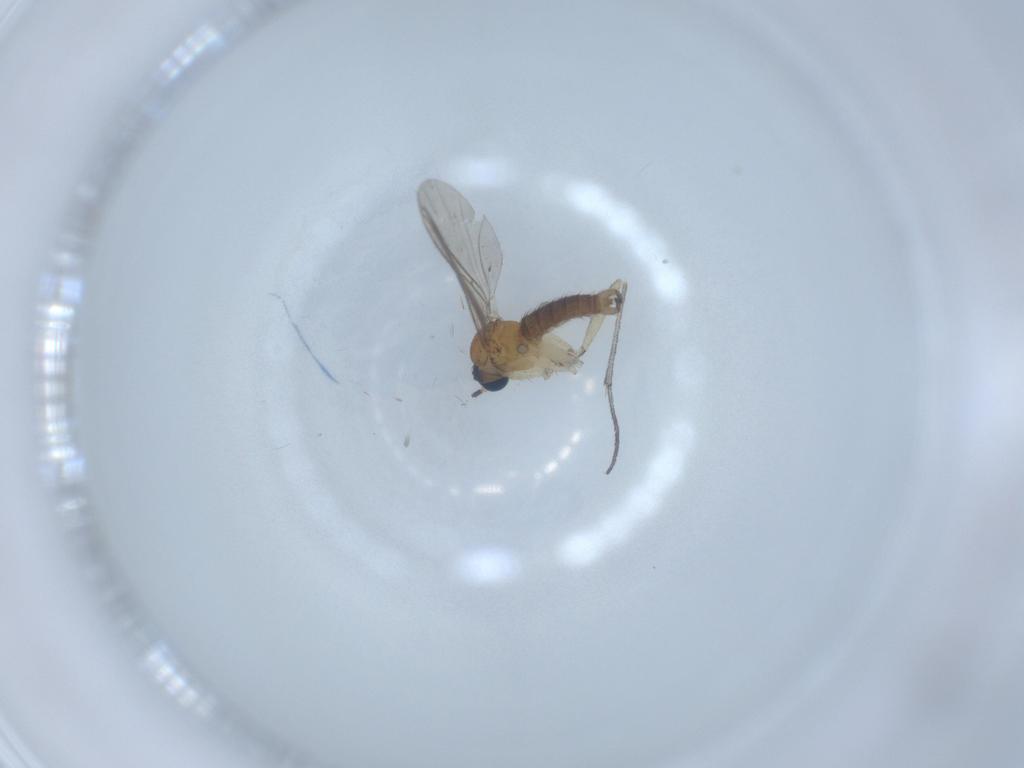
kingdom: Animalia
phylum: Arthropoda
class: Insecta
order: Diptera
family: Sciaridae
